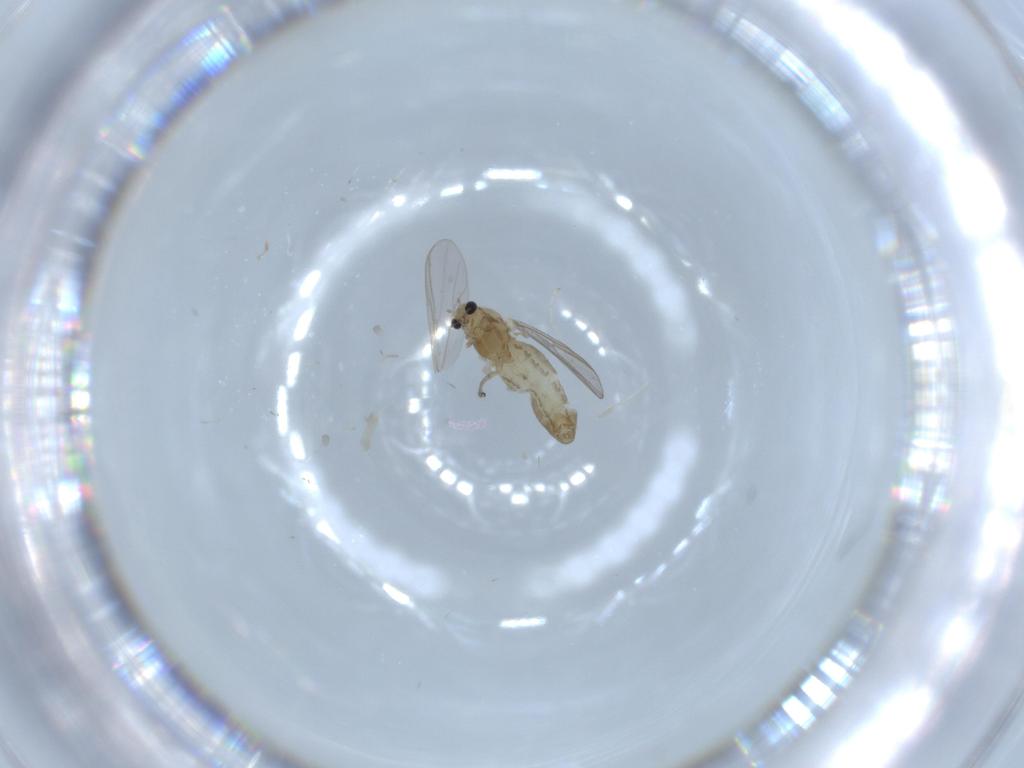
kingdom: Animalia
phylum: Arthropoda
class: Insecta
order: Diptera
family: Chironomidae
